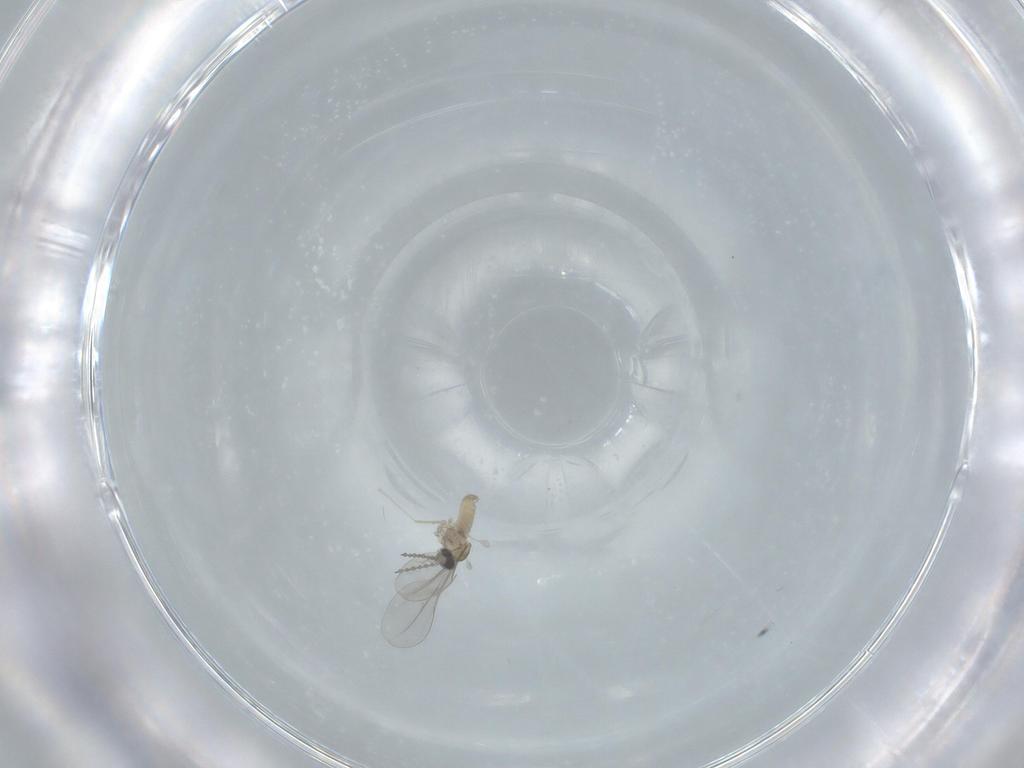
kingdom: Animalia
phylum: Arthropoda
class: Insecta
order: Diptera
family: Cecidomyiidae
